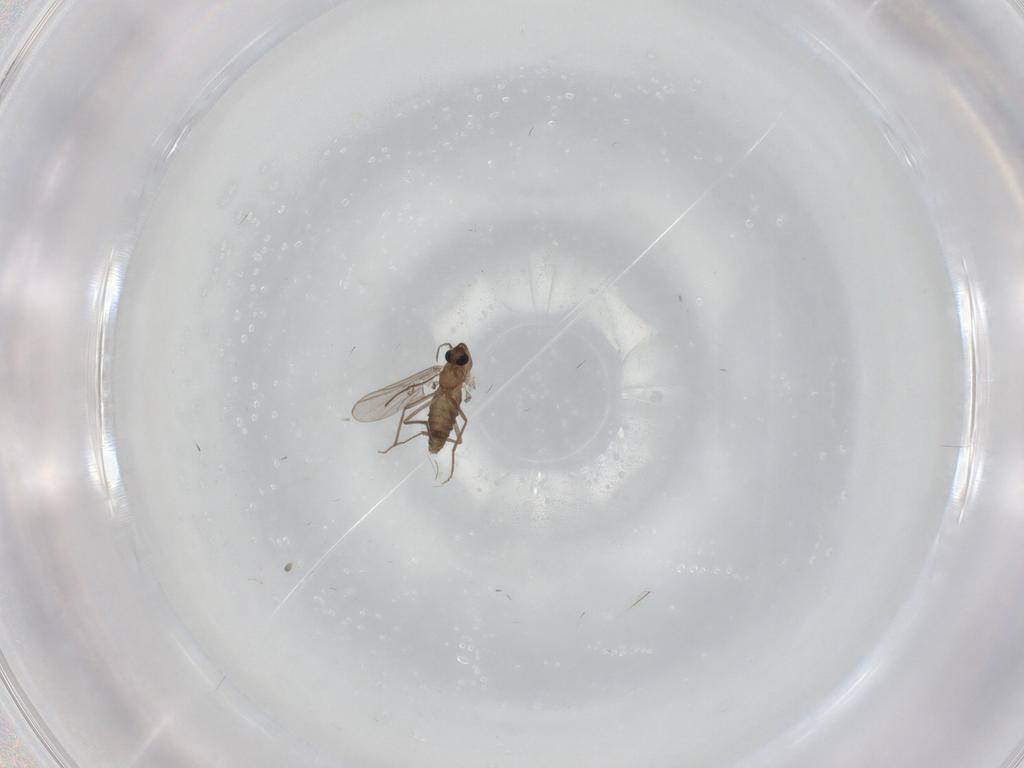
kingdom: Animalia
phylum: Arthropoda
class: Insecta
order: Diptera
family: Chironomidae
